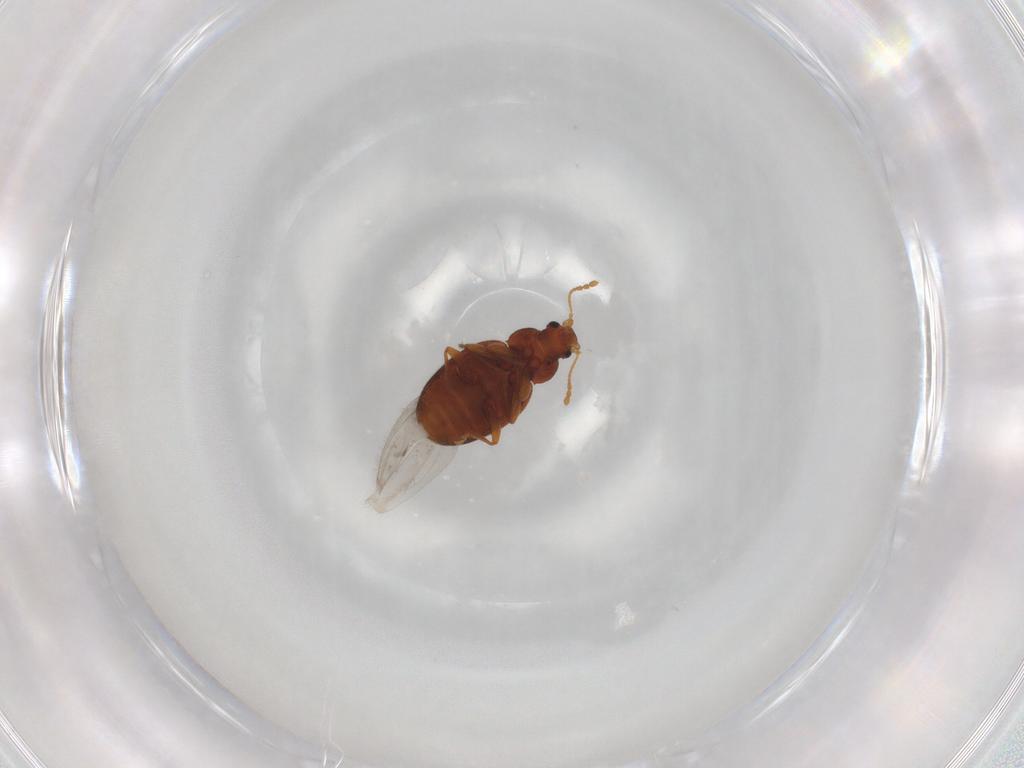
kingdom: Animalia
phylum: Arthropoda
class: Insecta
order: Coleoptera
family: Latridiidae
